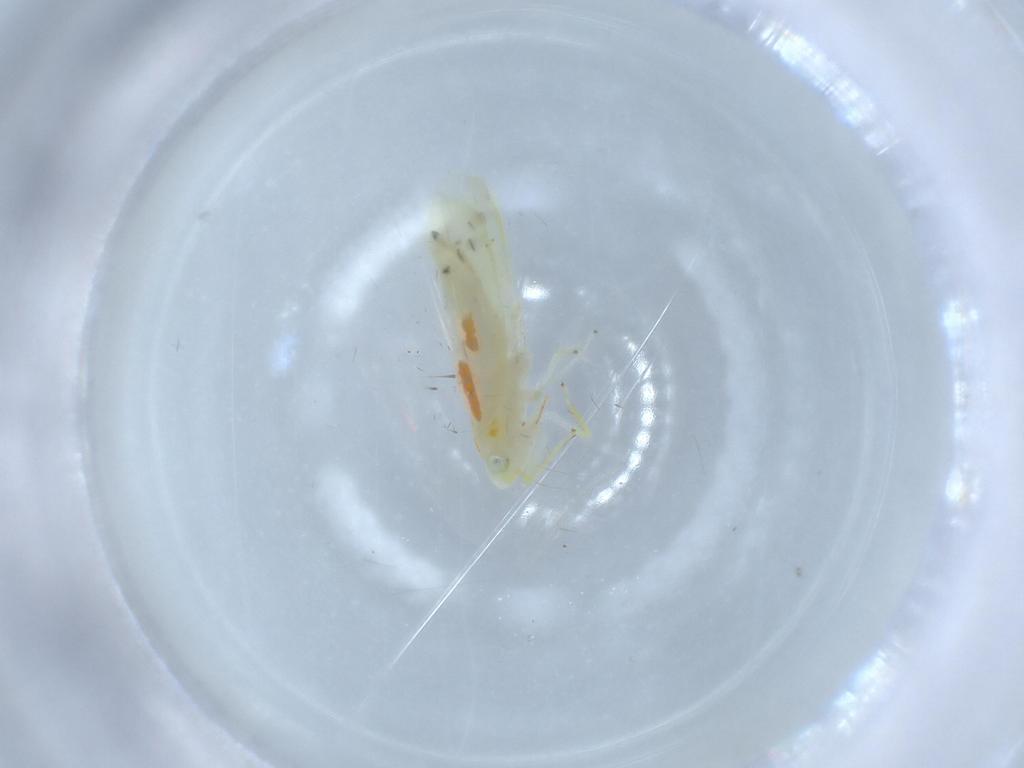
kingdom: Animalia
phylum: Arthropoda
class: Insecta
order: Hemiptera
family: Cicadellidae
